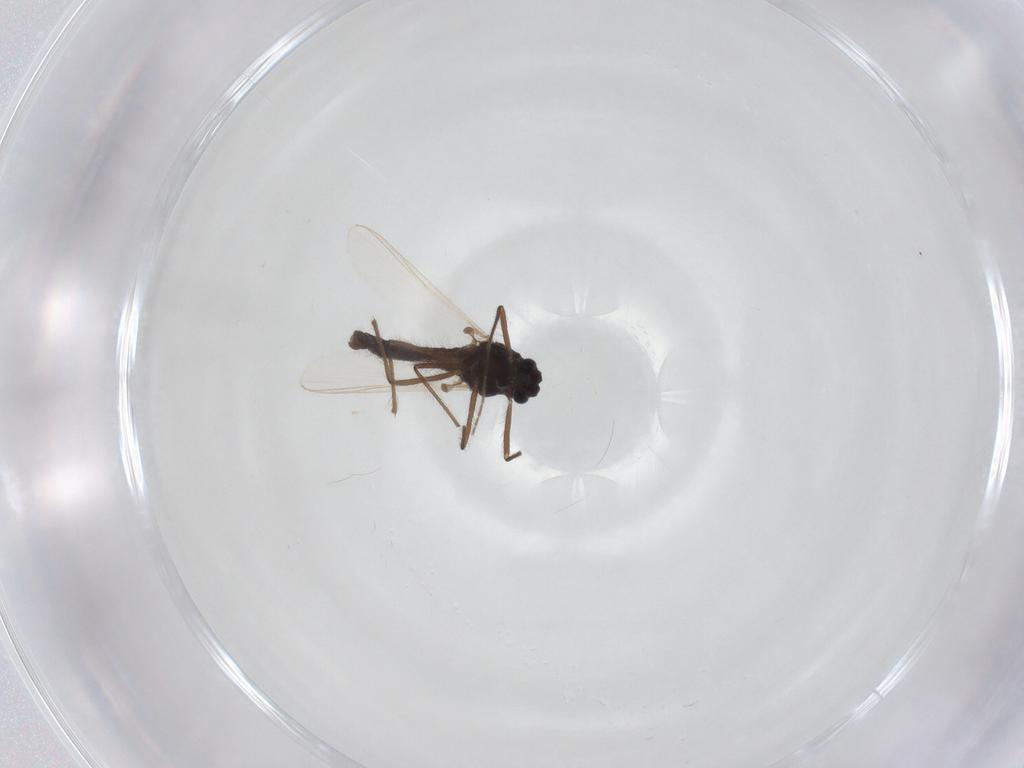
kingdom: Animalia
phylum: Arthropoda
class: Insecta
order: Diptera
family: Chironomidae
